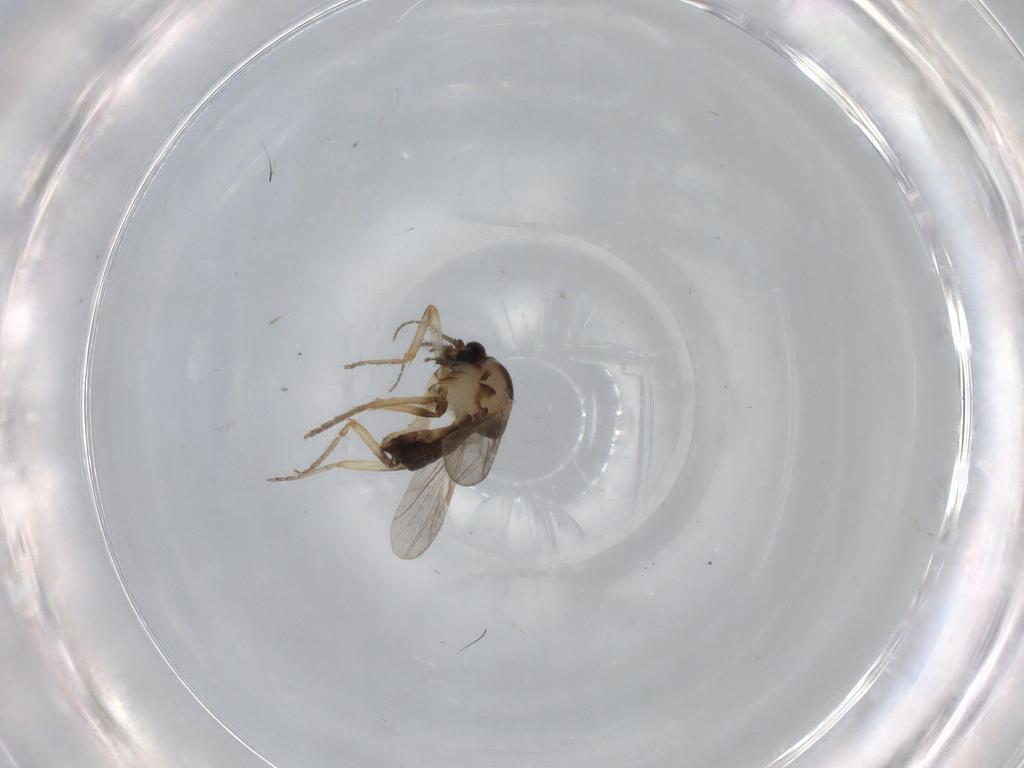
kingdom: Animalia
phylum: Arthropoda
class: Insecta
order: Diptera
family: Ceratopogonidae
